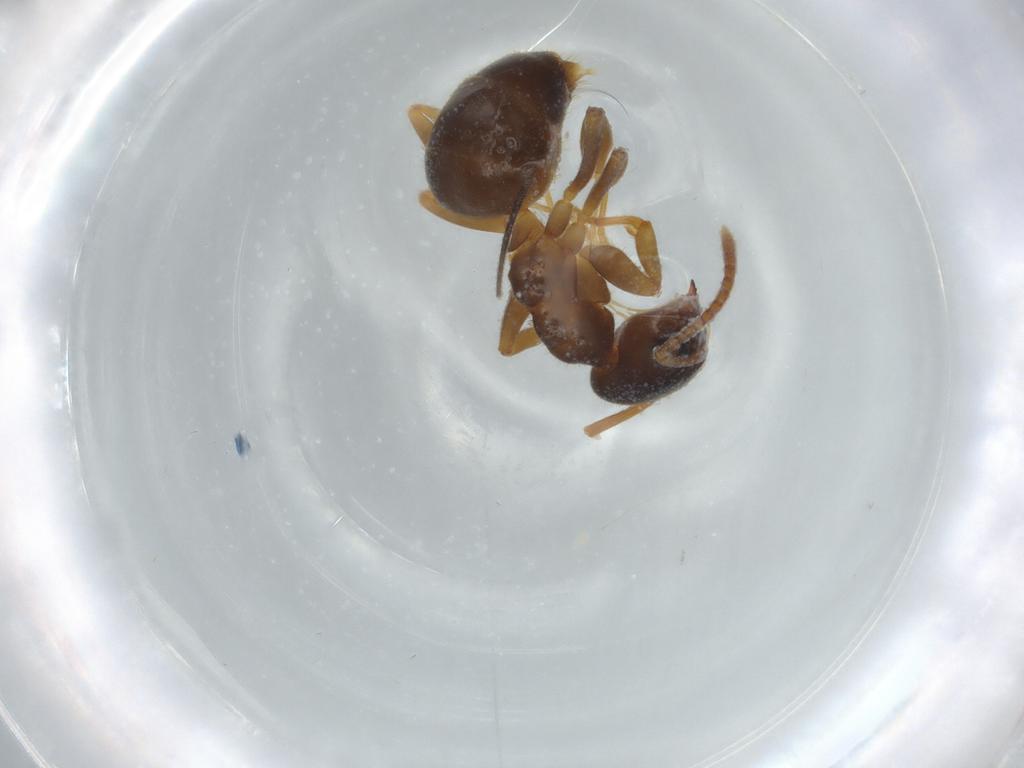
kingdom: Animalia
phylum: Arthropoda
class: Insecta
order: Hymenoptera
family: Formicidae
